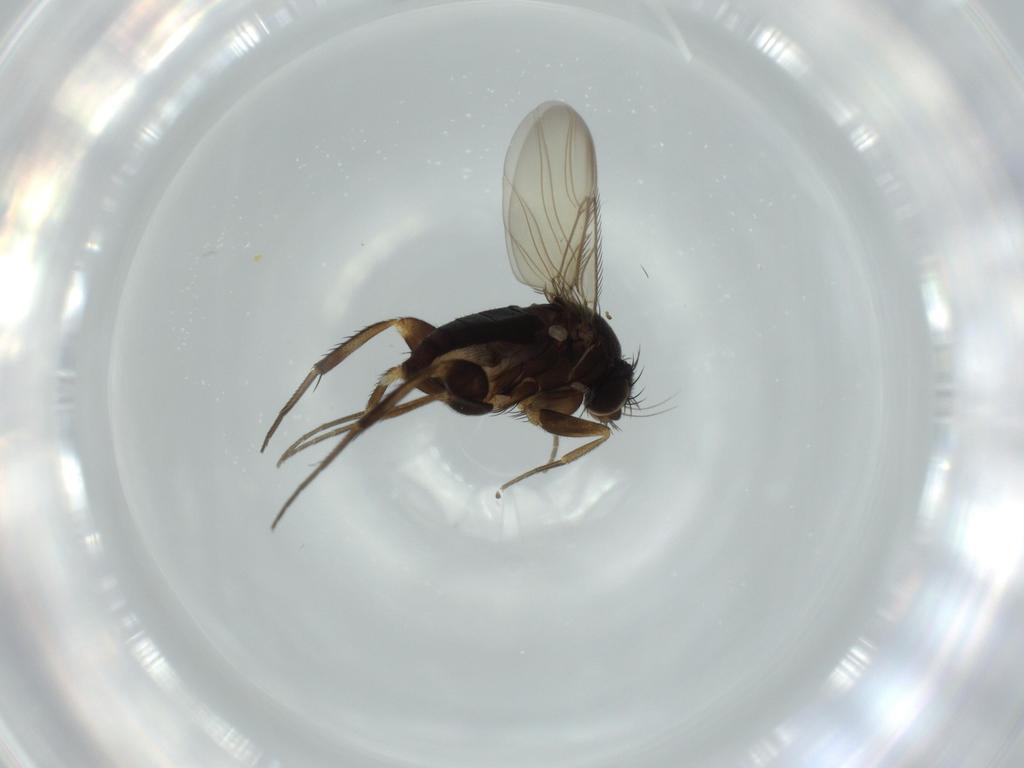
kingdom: Animalia
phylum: Arthropoda
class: Insecta
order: Diptera
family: Phoridae
